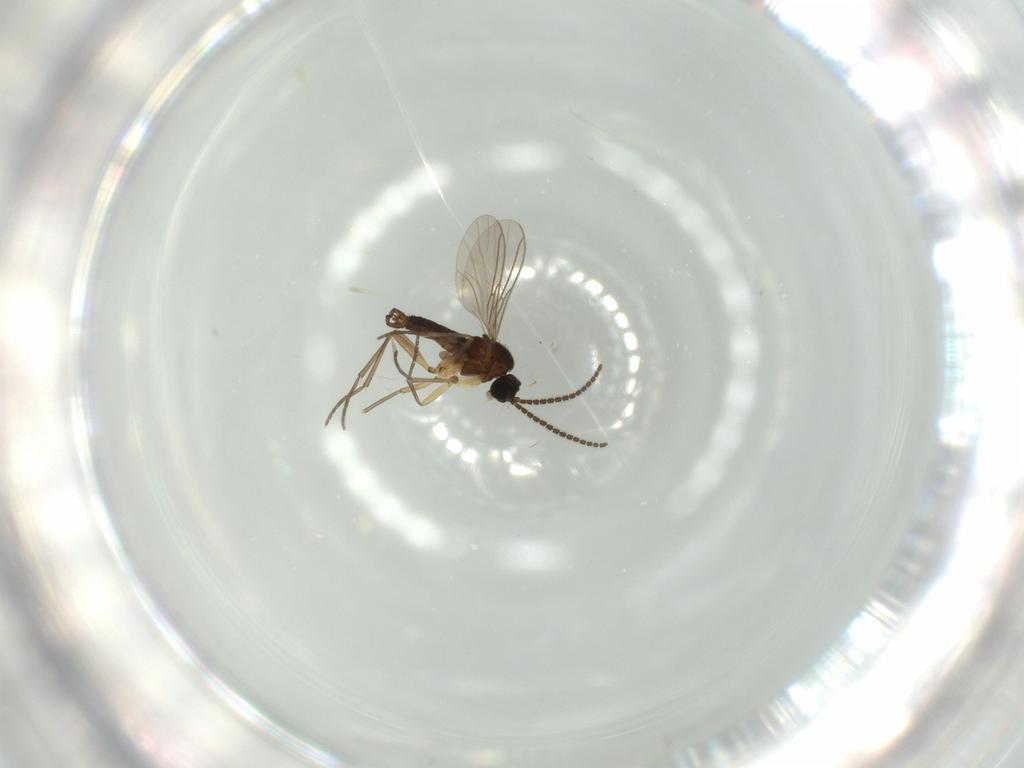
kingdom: Animalia
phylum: Arthropoda
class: Insecta
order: Diptera
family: Sciaridae
